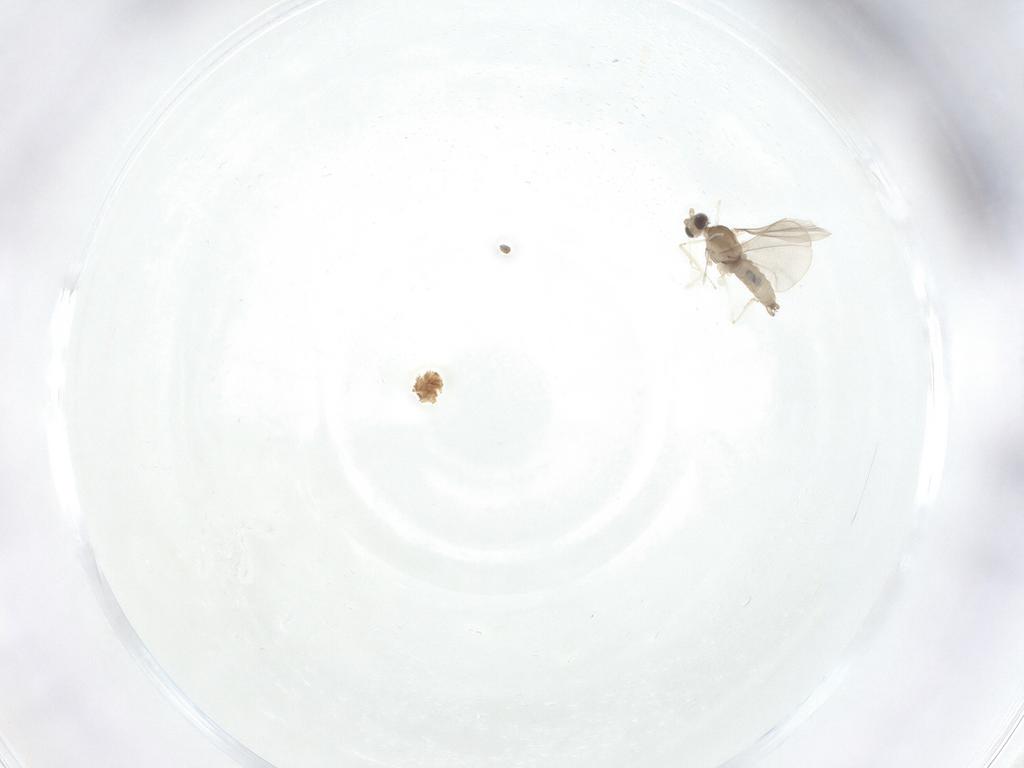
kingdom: Animalia
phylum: Arthropoda
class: Insecta
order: Diptera
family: Limoniidae
